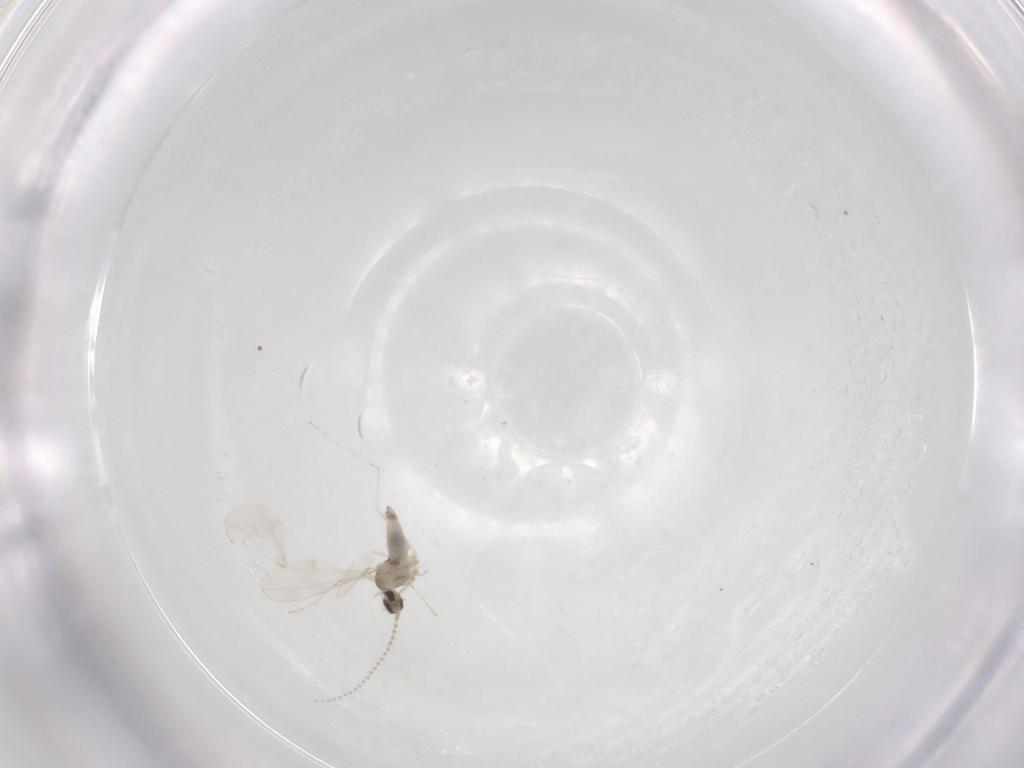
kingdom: Animalia
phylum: Arthropoda
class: Insecta
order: Diptera
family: Cecidomyiidae
